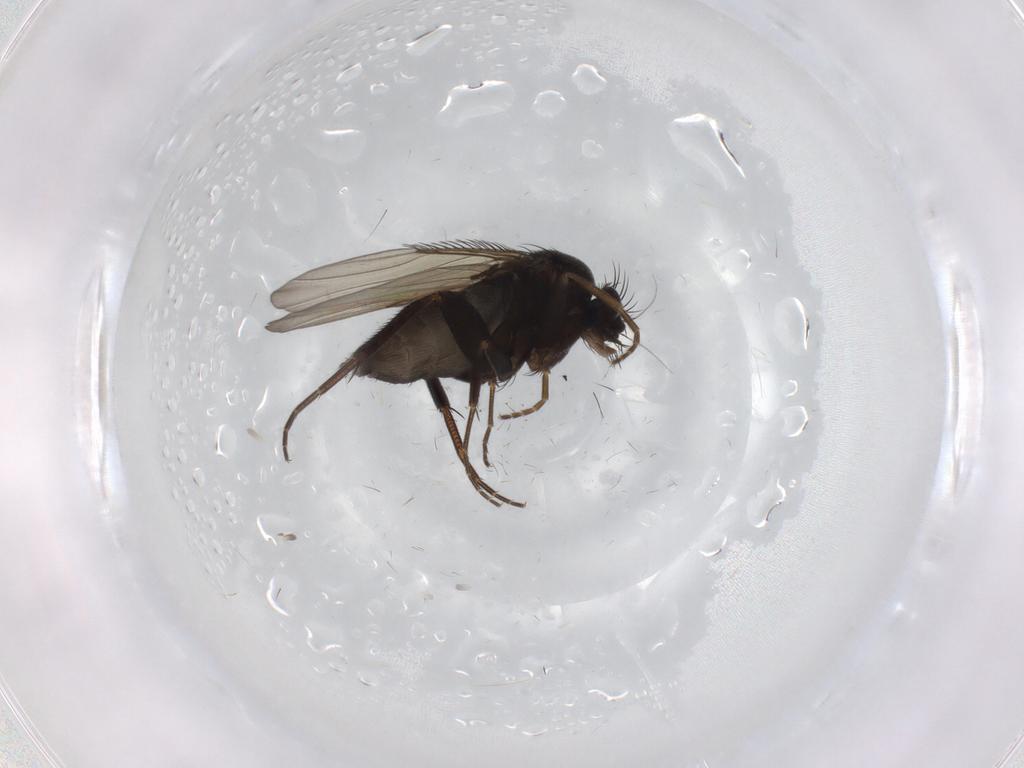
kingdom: Animalia
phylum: Arthropoda
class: Insecta
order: Diptera
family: Phoridae
